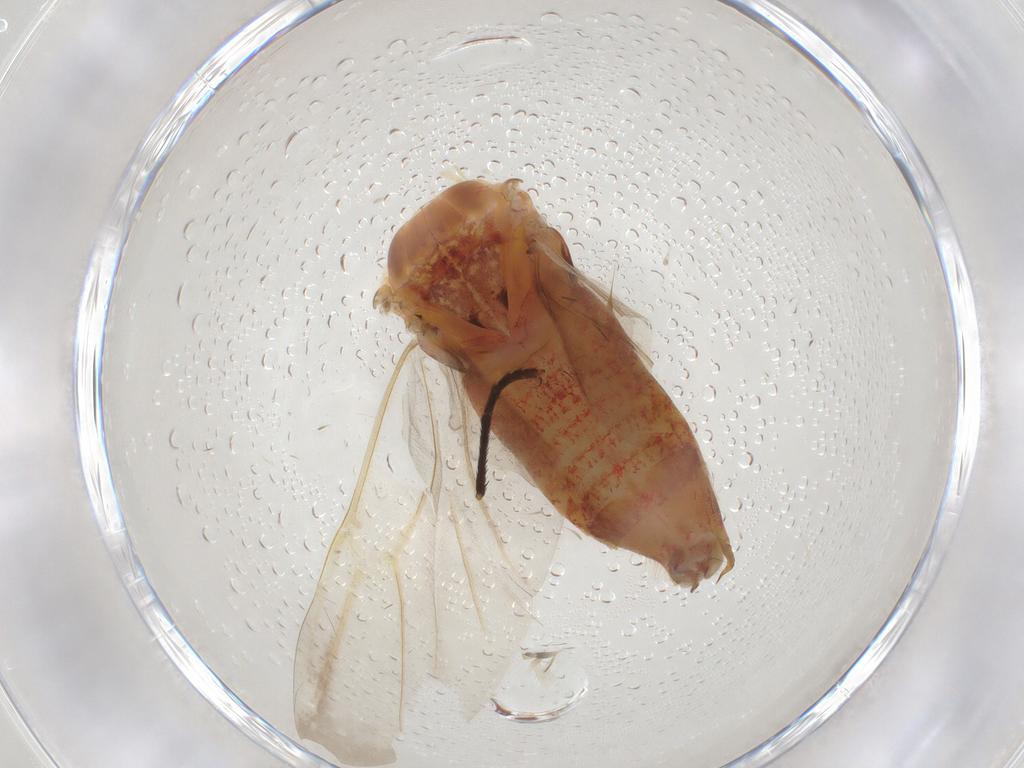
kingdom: Animalia
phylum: Arthropoda
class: Insecta
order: Hemiptera
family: Miridae
